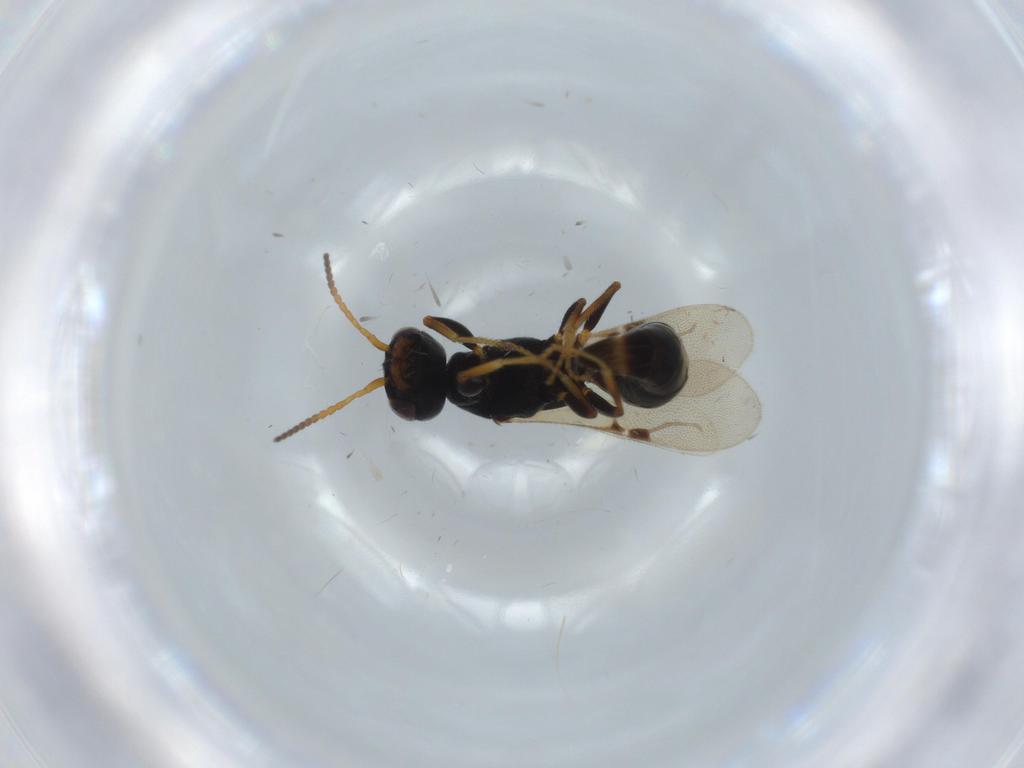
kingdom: Animalia
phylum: Arthropoda
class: Insecta
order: Hymenoptera
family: Bethylidae
